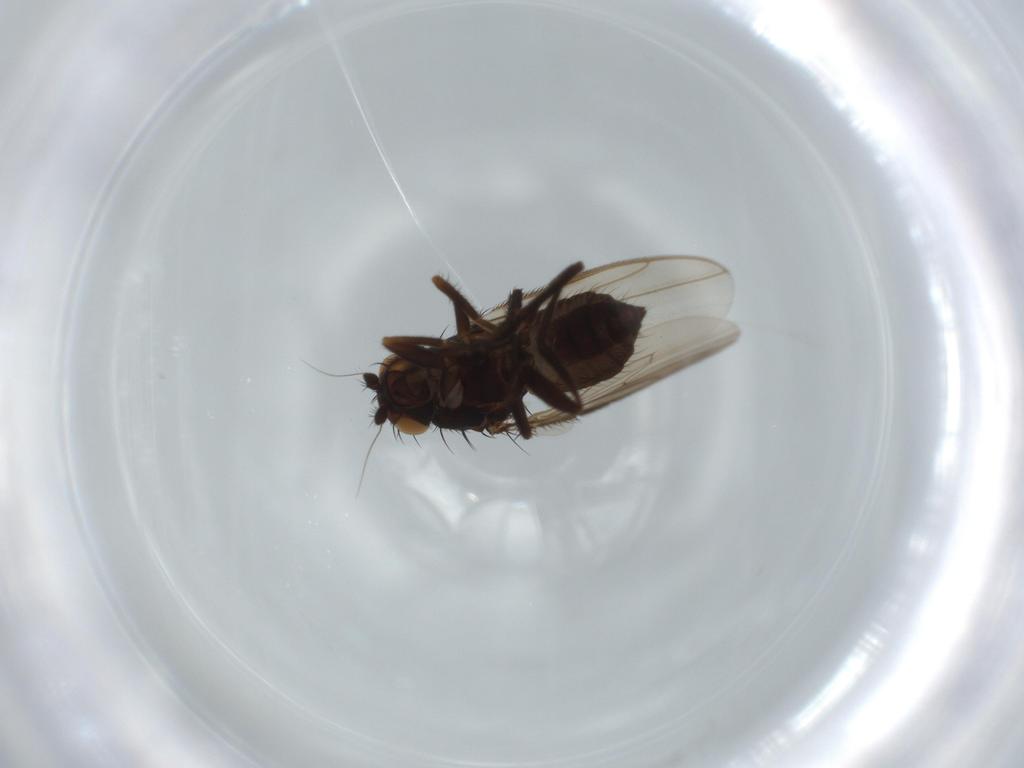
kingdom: Animalia
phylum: Arthropoda
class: Insecta
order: Diptera
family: Sphaeroceridae
